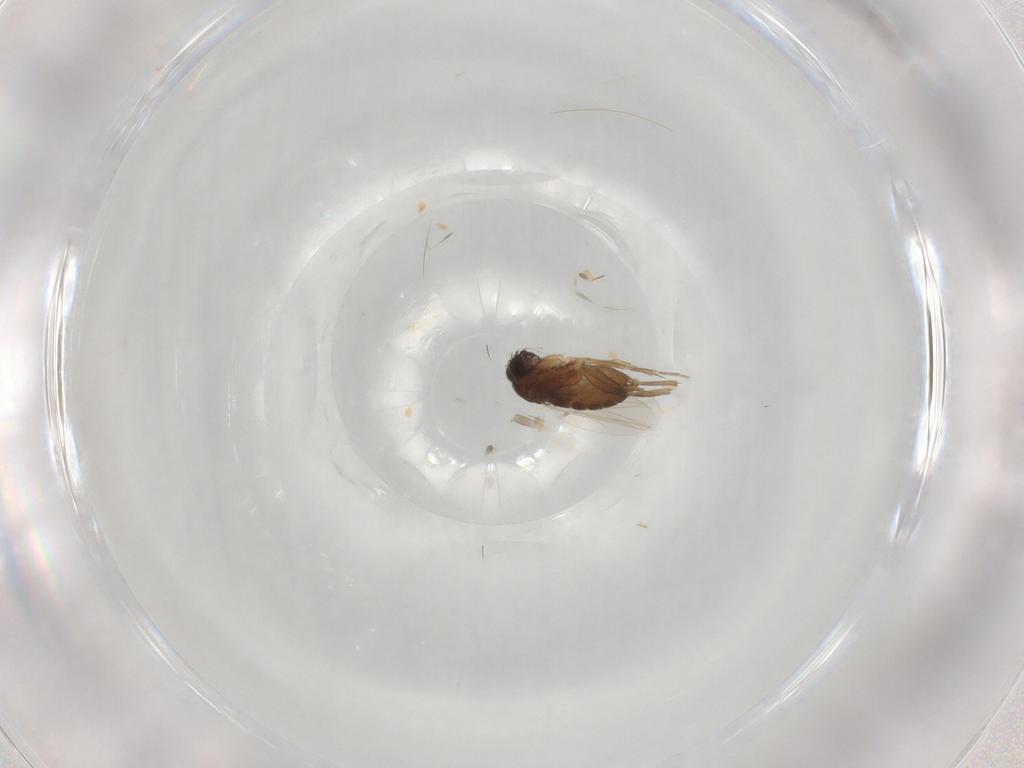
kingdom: Animalia
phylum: Arthropoda
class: Insecta
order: Diptera
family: Phoridae
